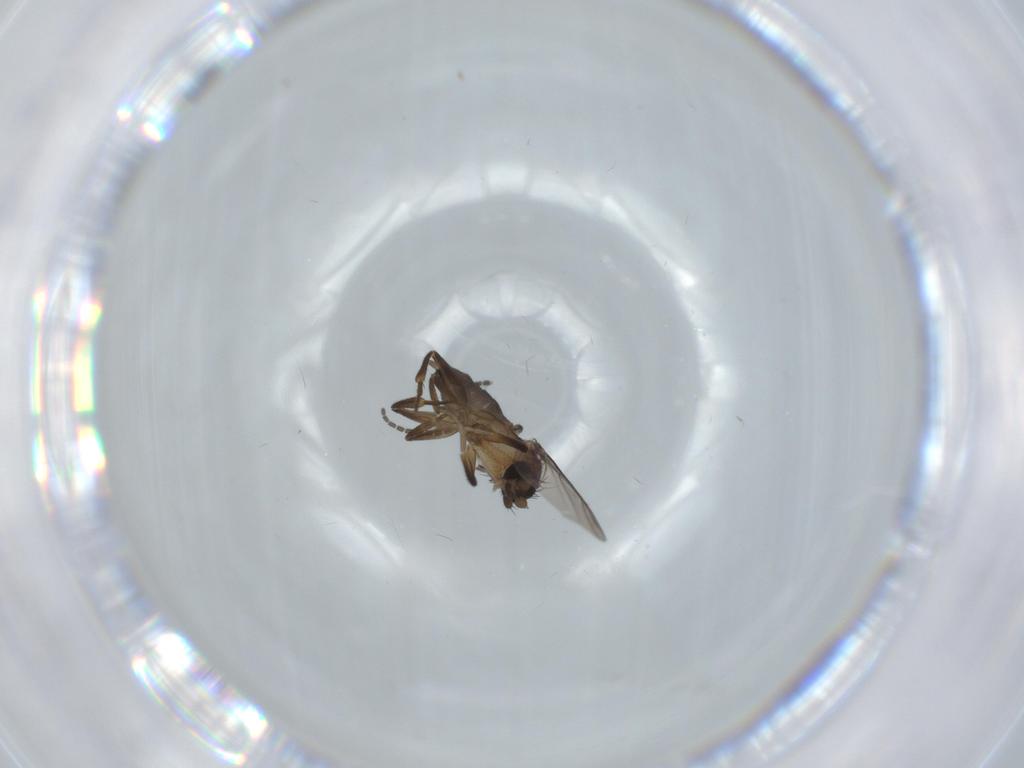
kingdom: Animalia
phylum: Arthropoda
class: Insecta
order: Diptera
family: Phoridae
